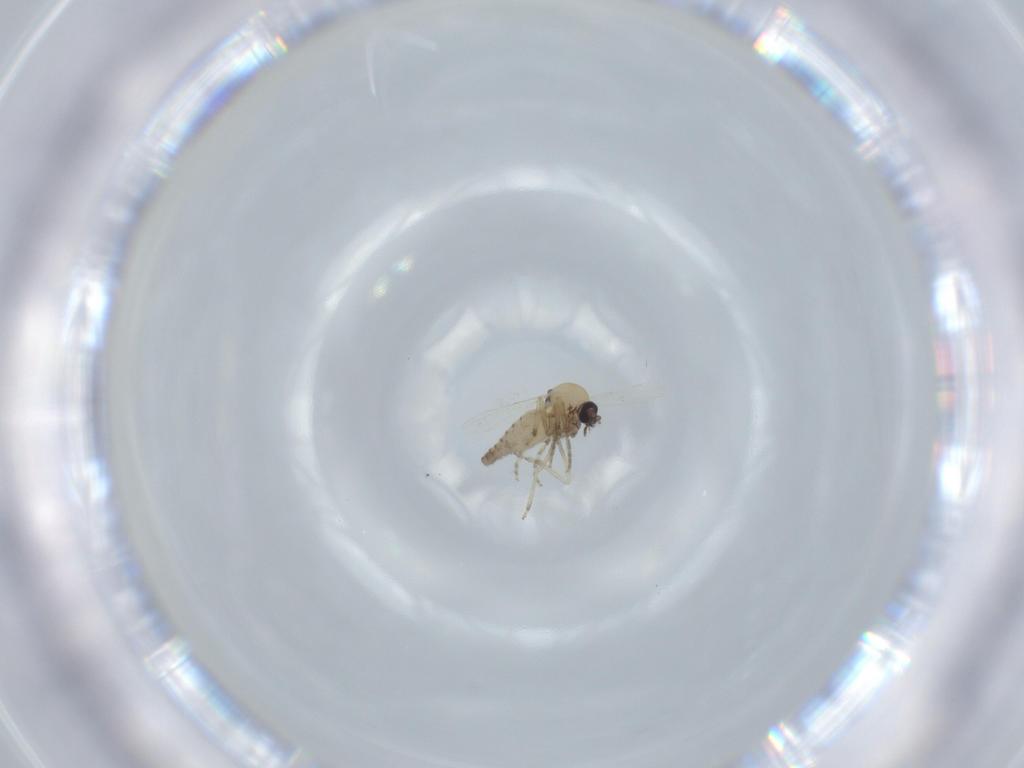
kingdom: Animalia
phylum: Arthropoda
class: Insecta
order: Diptera
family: Ceratopogonidae
